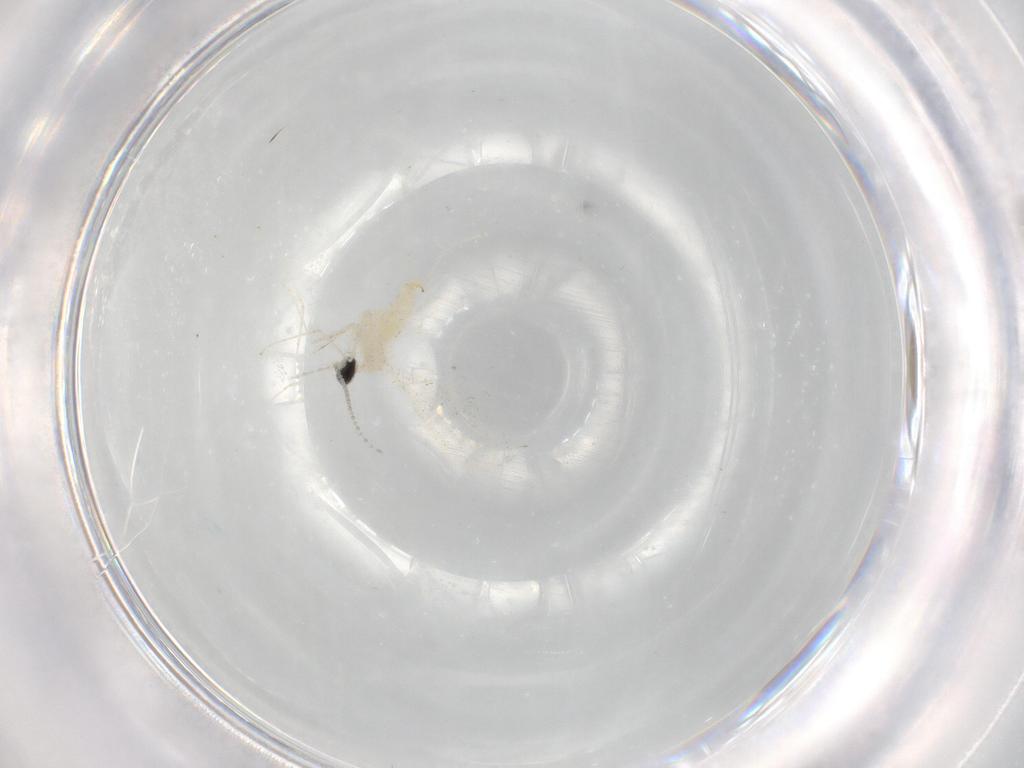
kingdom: Animalia
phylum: Arthropoda
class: Insecta
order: Diptera
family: Cecidomyiidae
